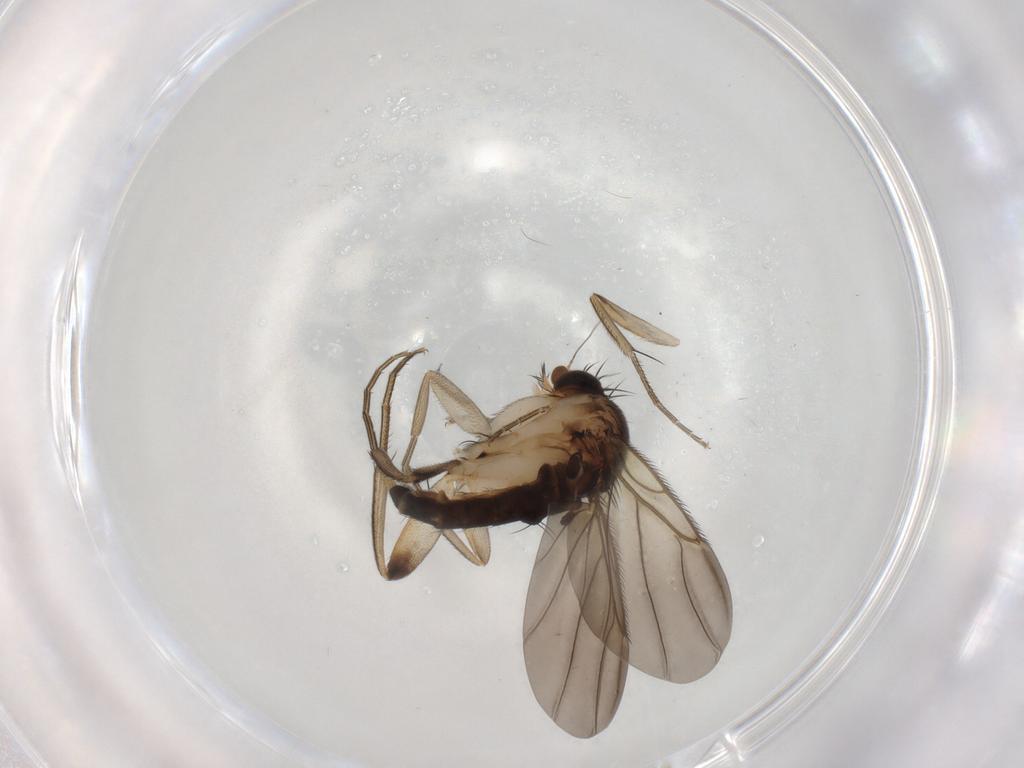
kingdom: Animalia
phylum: Arthropoda
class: Insecta
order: Diptera
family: Phoridae
